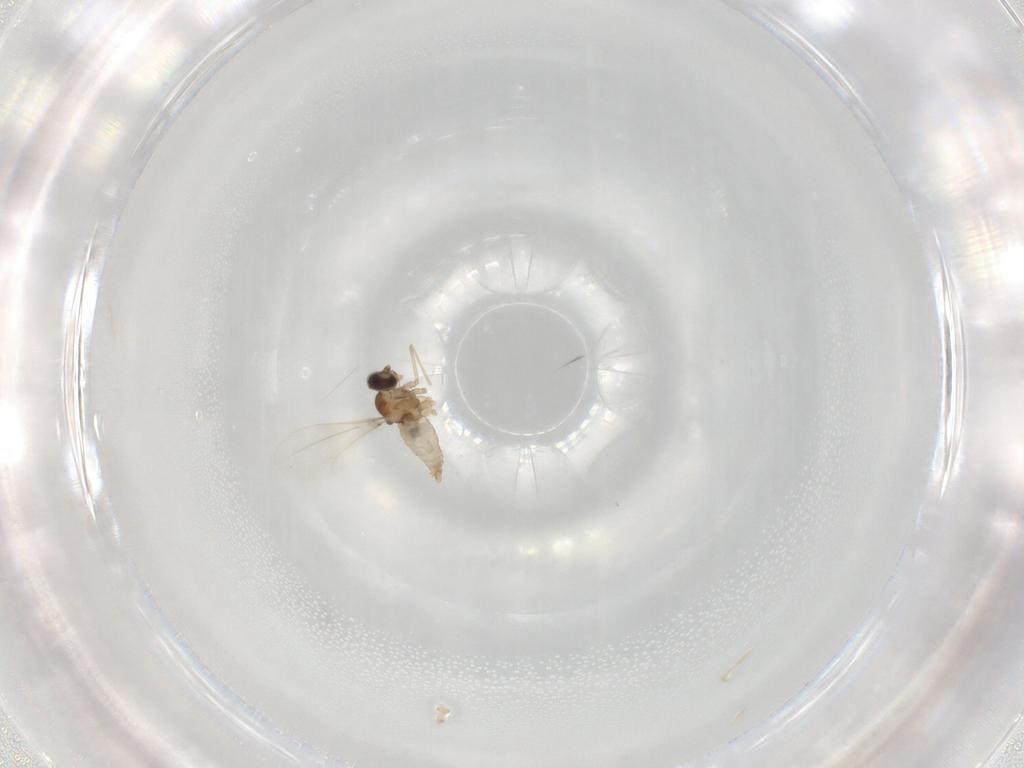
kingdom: Animalia
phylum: Arthropoda
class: Insecta
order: Diptera
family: Cecidomyiidae
